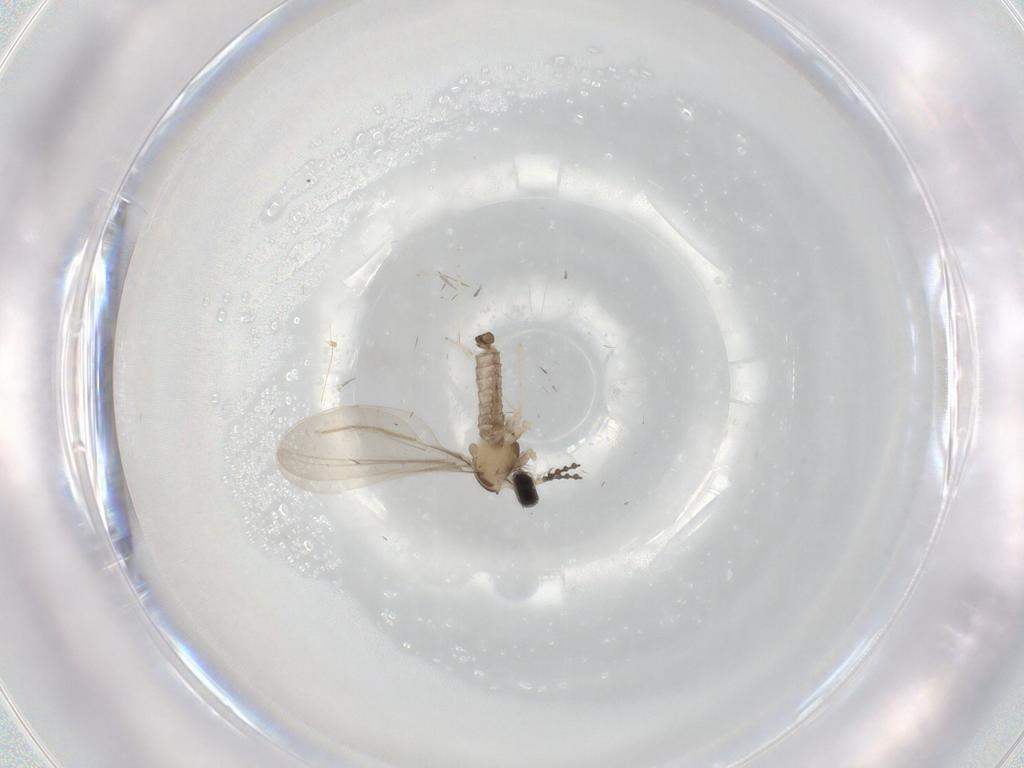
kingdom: Animalia
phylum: Arthropoda
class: Insecta
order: Diptera
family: Cecidomyiidae
